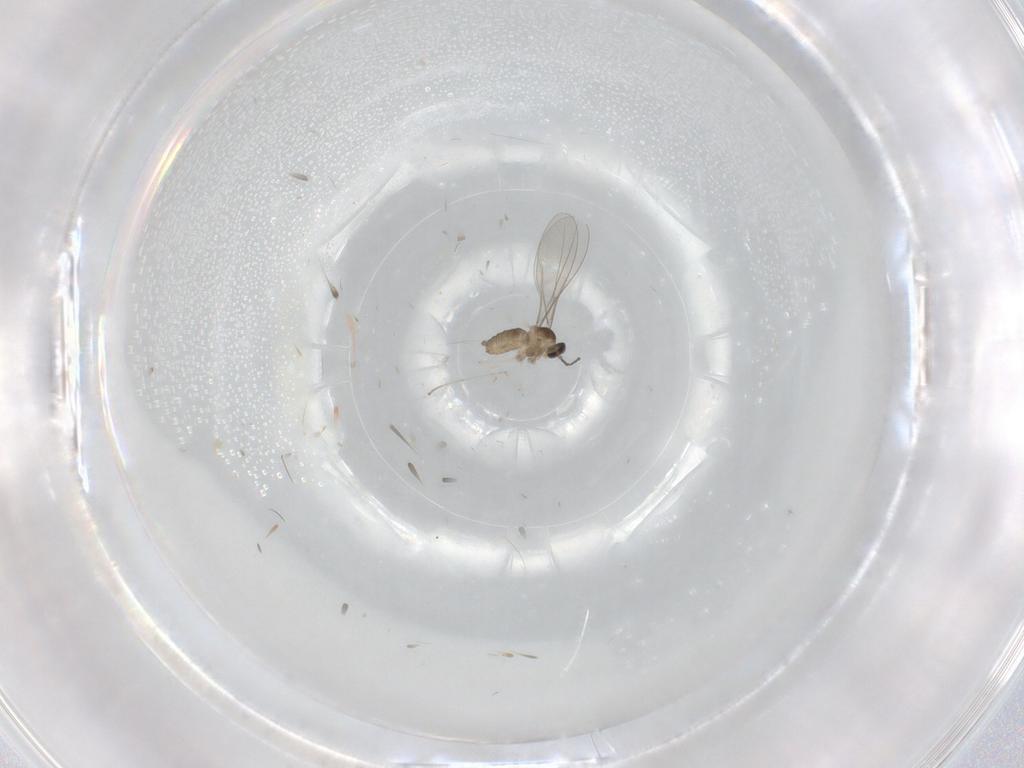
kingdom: Animalia
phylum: Arthropoda
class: Insecta
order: Diptera
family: Cecidomyiidae
